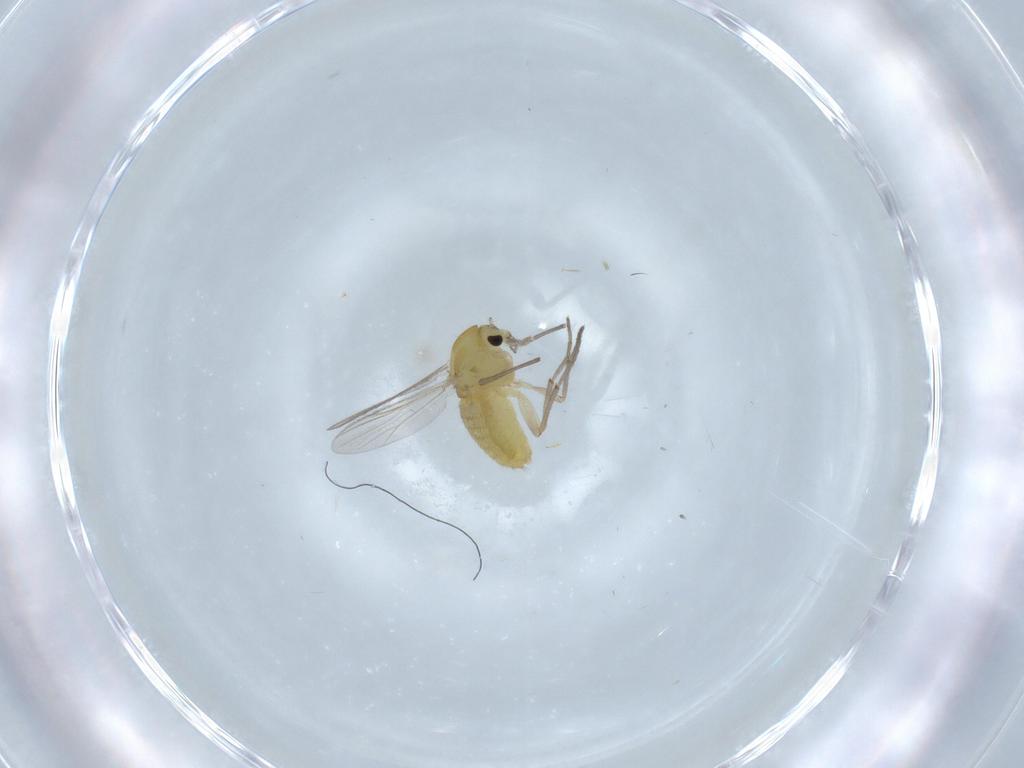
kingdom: Animalia
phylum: Arthropoda
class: Insecta
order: Diptera
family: Chironomidae
